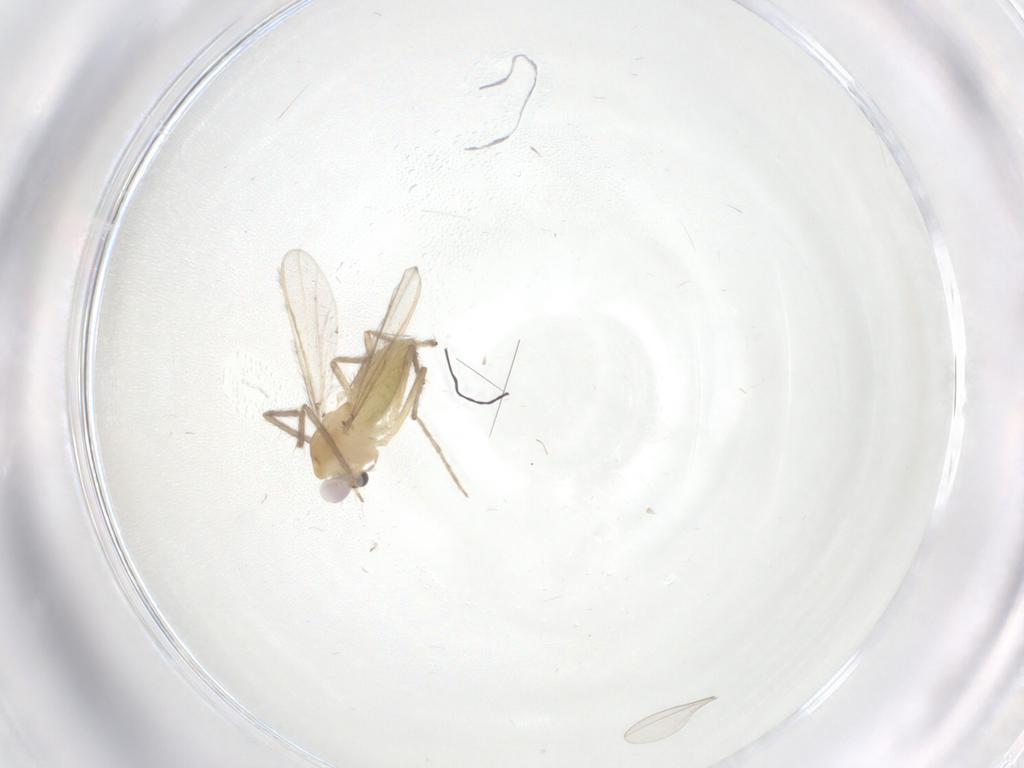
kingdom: Animalia
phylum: Arthropoda
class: Insecta
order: Diptera
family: Chironomidae
